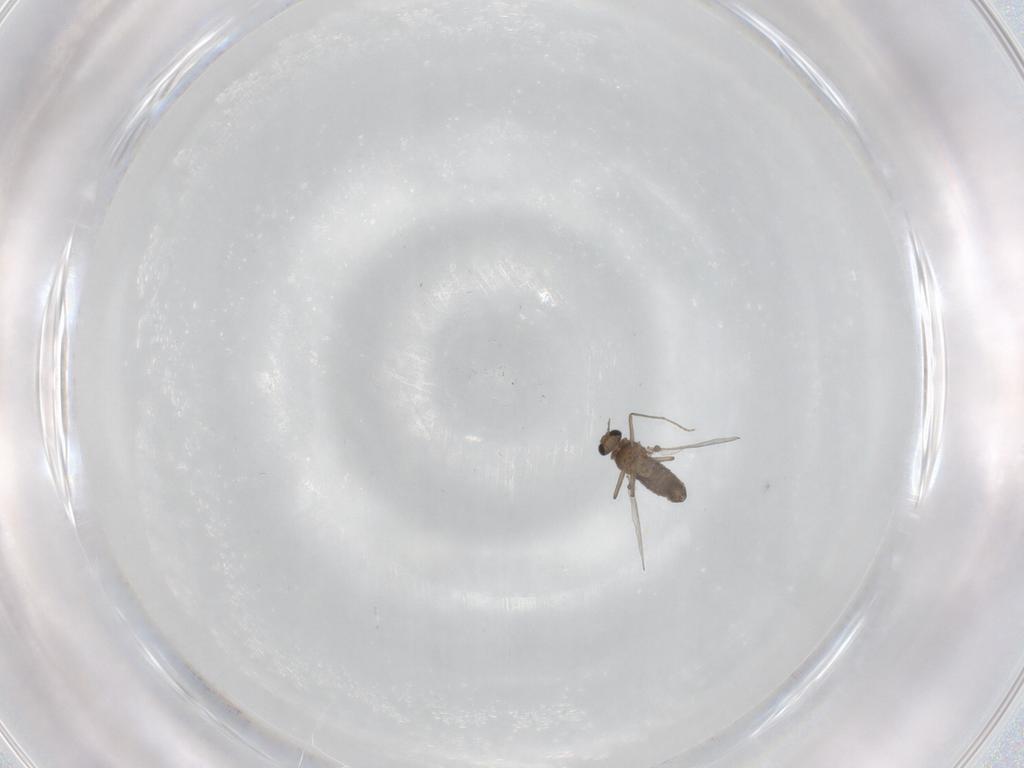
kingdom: Animalia
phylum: Arthropoda
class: Insecta
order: Diptera
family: Chironomidae
